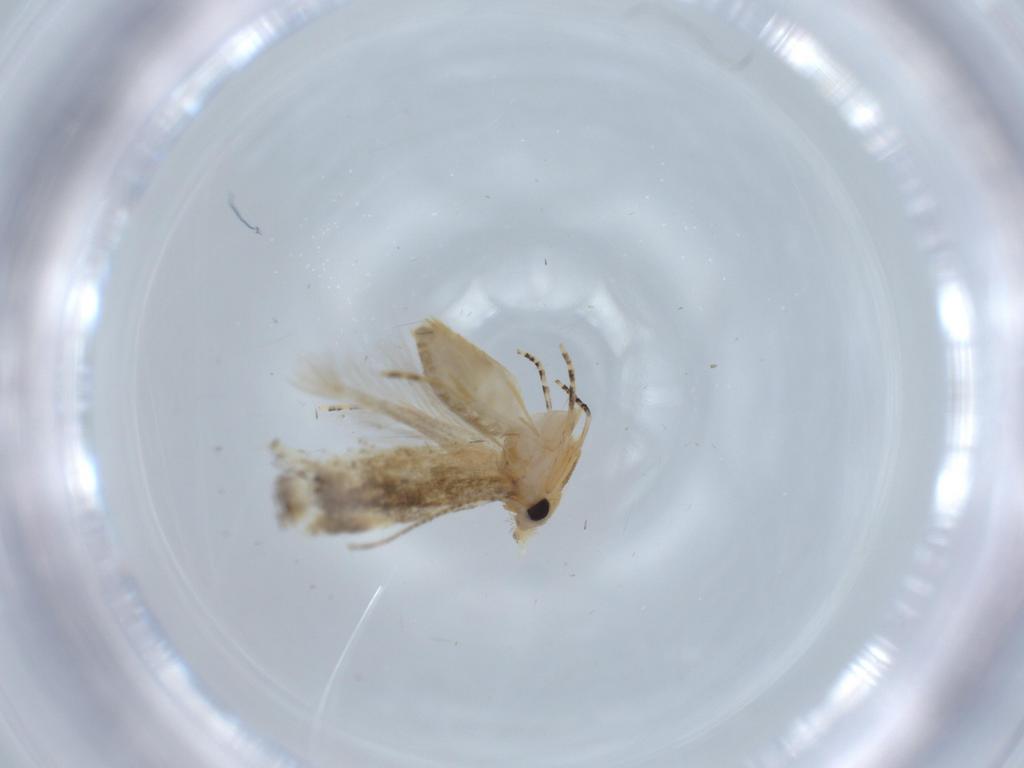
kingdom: Animalia
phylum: Arthropoda
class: Insecta
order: Lepidoptera
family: Bucculatricidae
